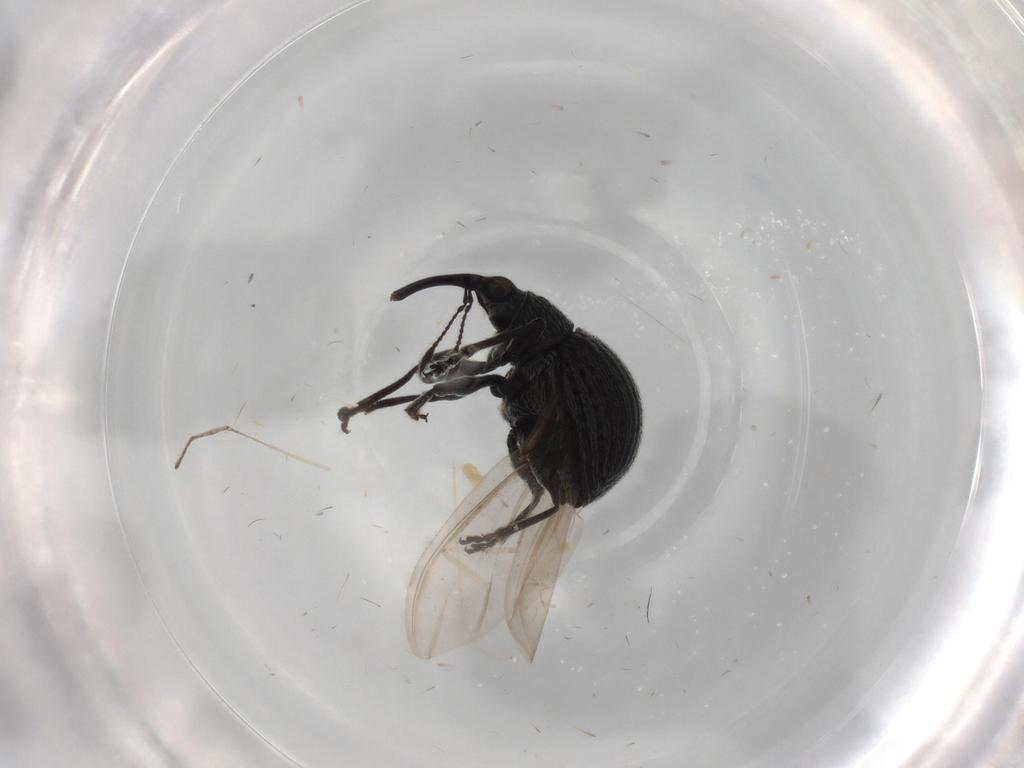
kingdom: Animalia
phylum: Arthropoda
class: Insecta
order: Coleoptera
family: Brentidae
